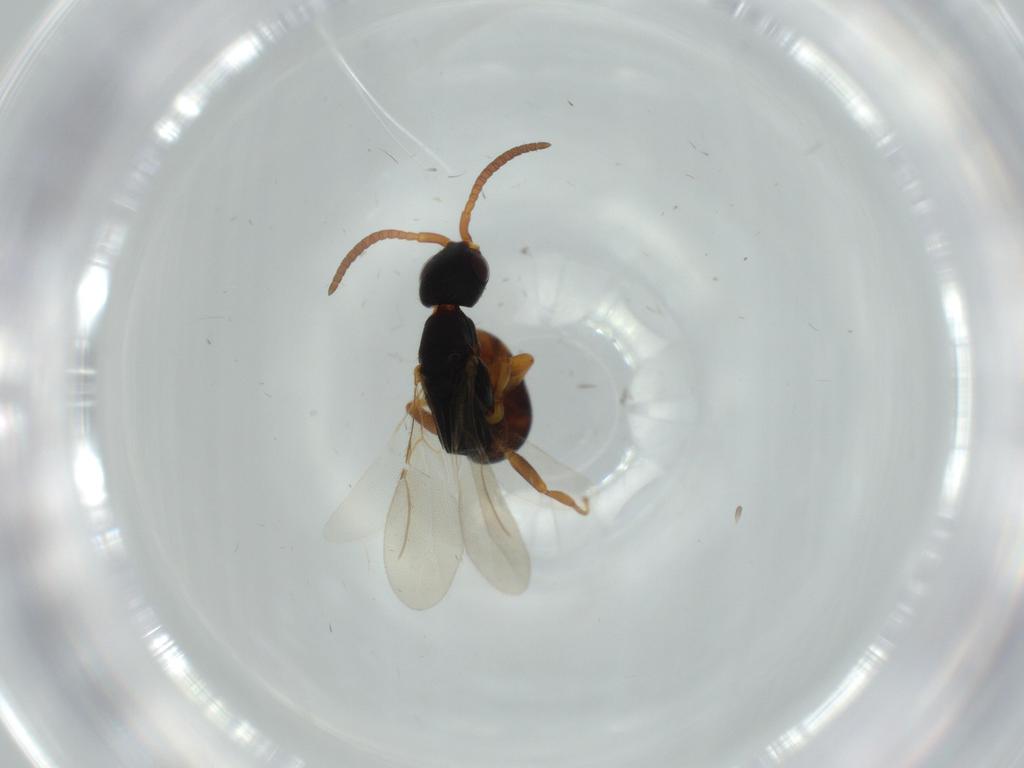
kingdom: Animalia
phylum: Arthropoda
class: Insecta
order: Hymenoptera
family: Bethylidae
